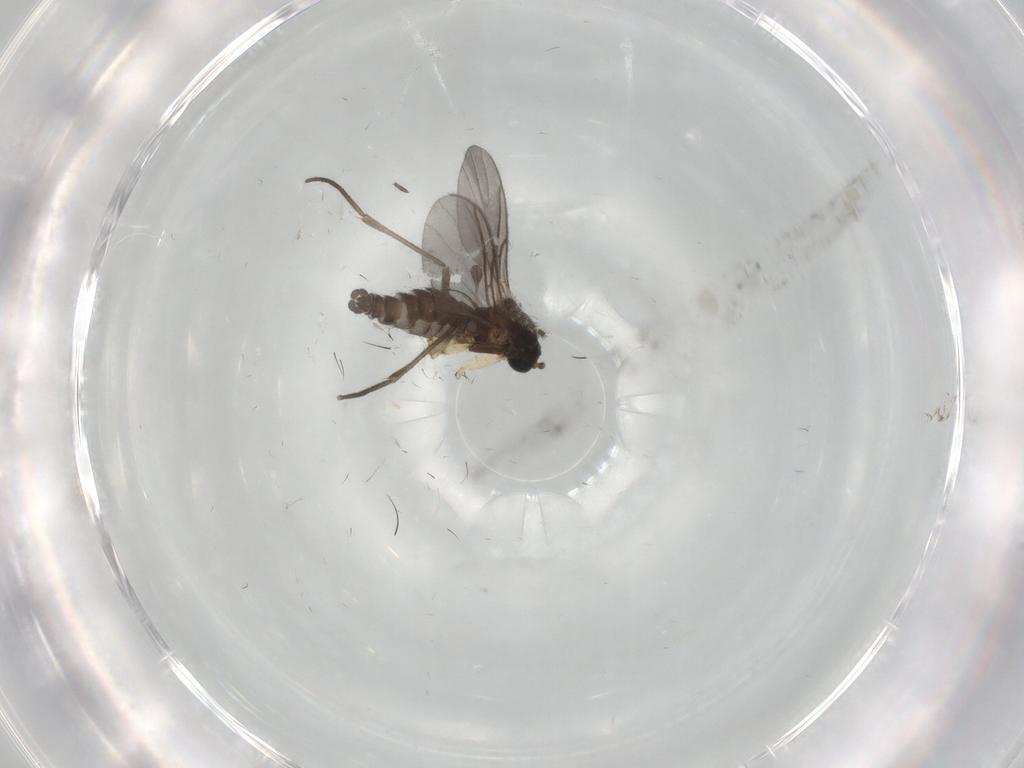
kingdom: Animalia
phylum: Arthropoda
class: Insecta
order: Diptera
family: Sciaridae
